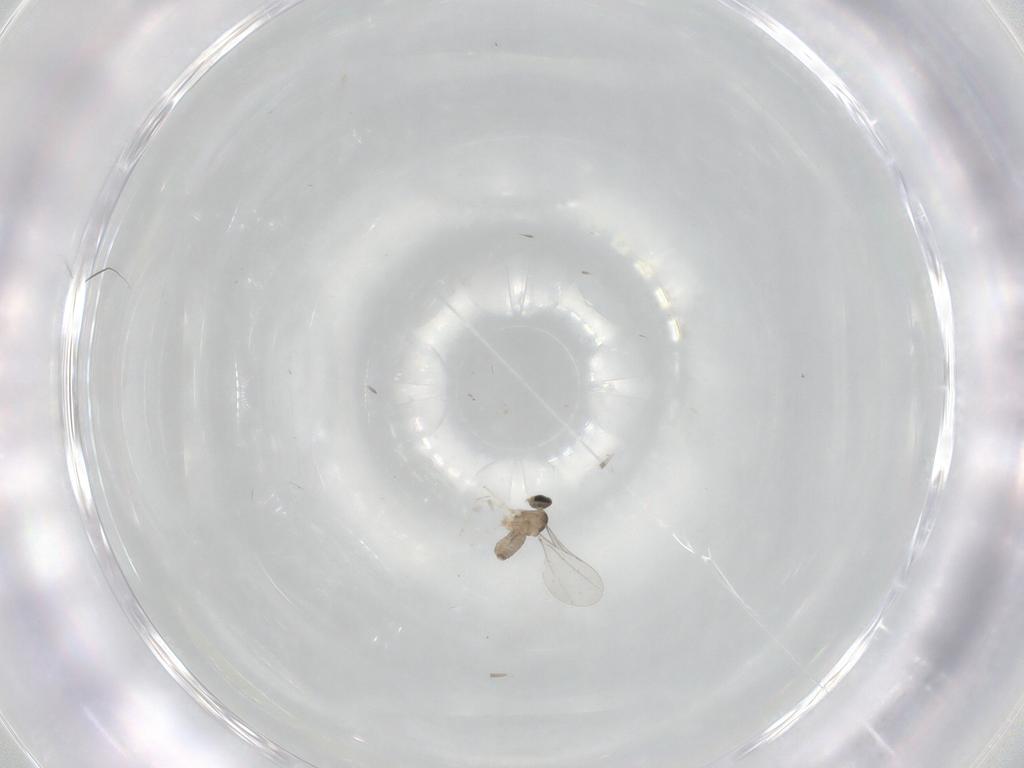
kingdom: Animalia
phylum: Arthropoda
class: Insecta
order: Diptera
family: Cecidomyiidae
